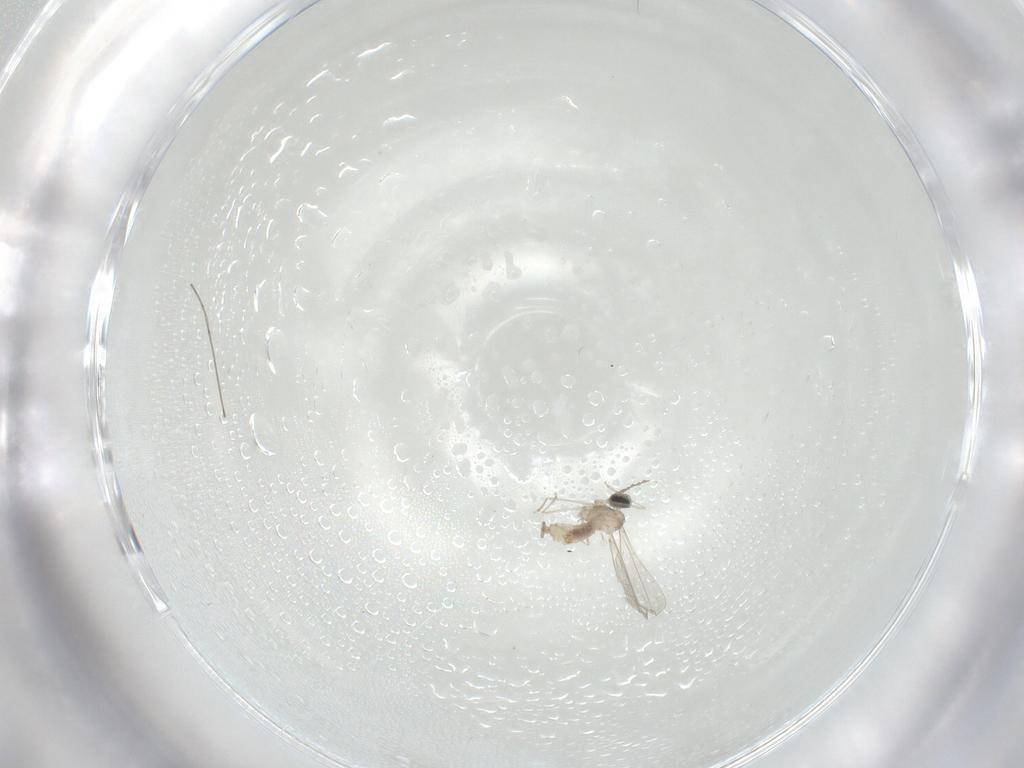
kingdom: Animalia
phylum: Arthropoda
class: Insecta
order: Diptera
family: Cecidomyiidae
